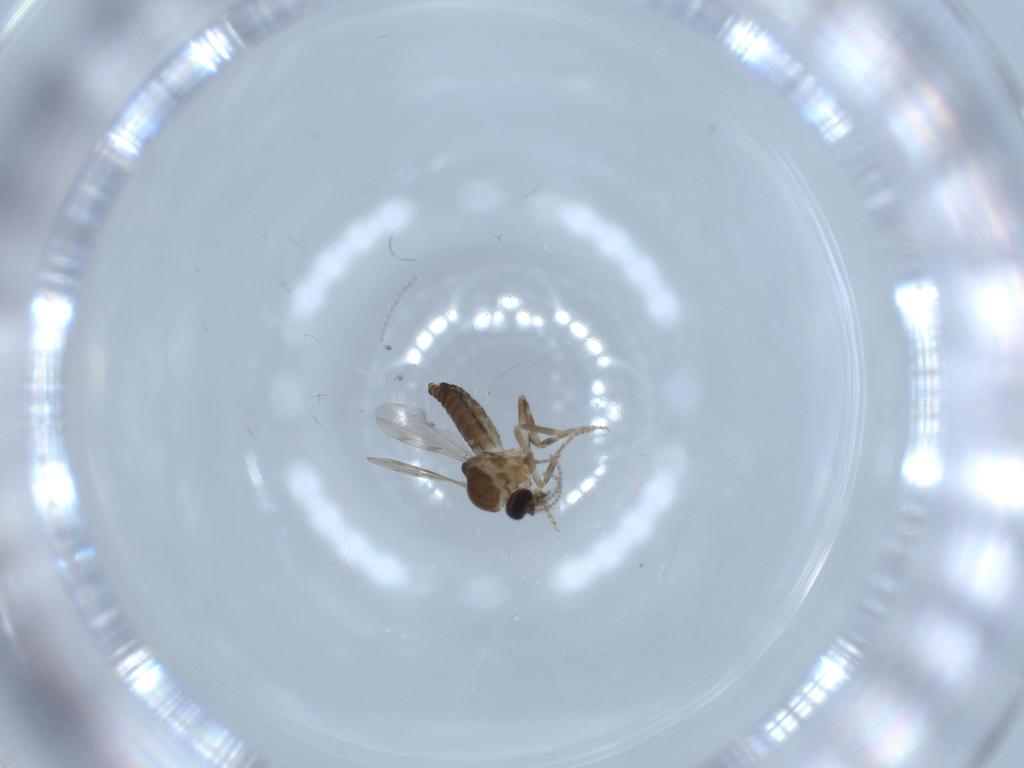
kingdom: Animalia
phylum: Arthropoda
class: Insecta
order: Diptera
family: Ceratopogonidae
